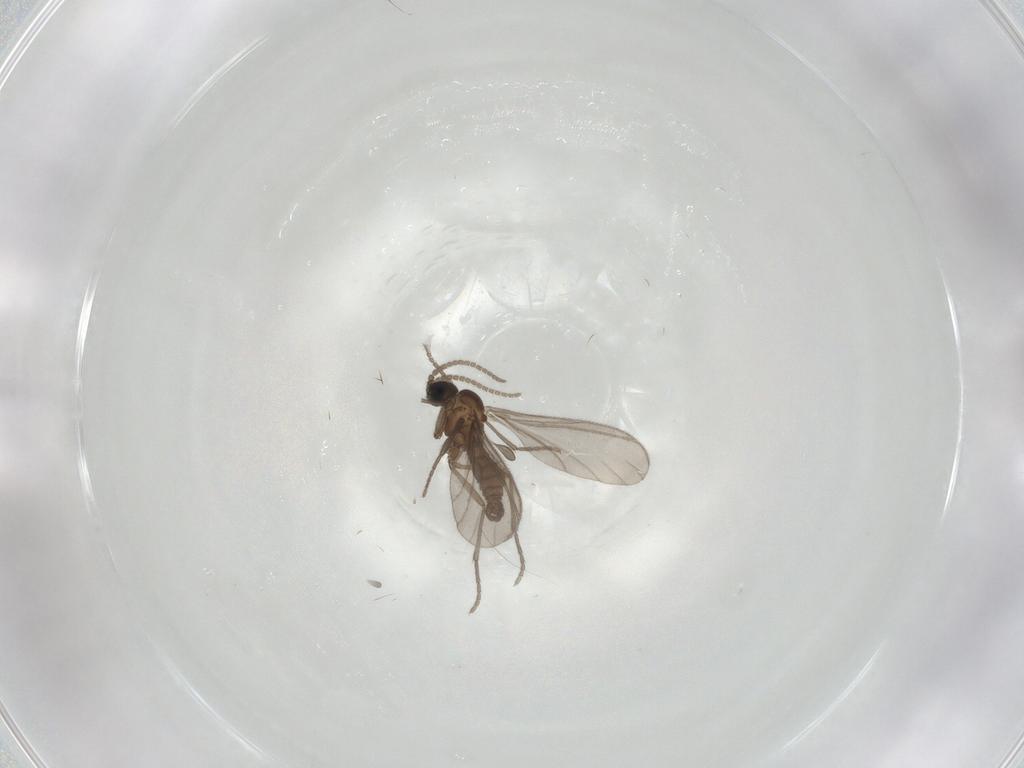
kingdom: Animalia
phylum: Arthropoda
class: Insecta
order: Diptera
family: Sciaridae
